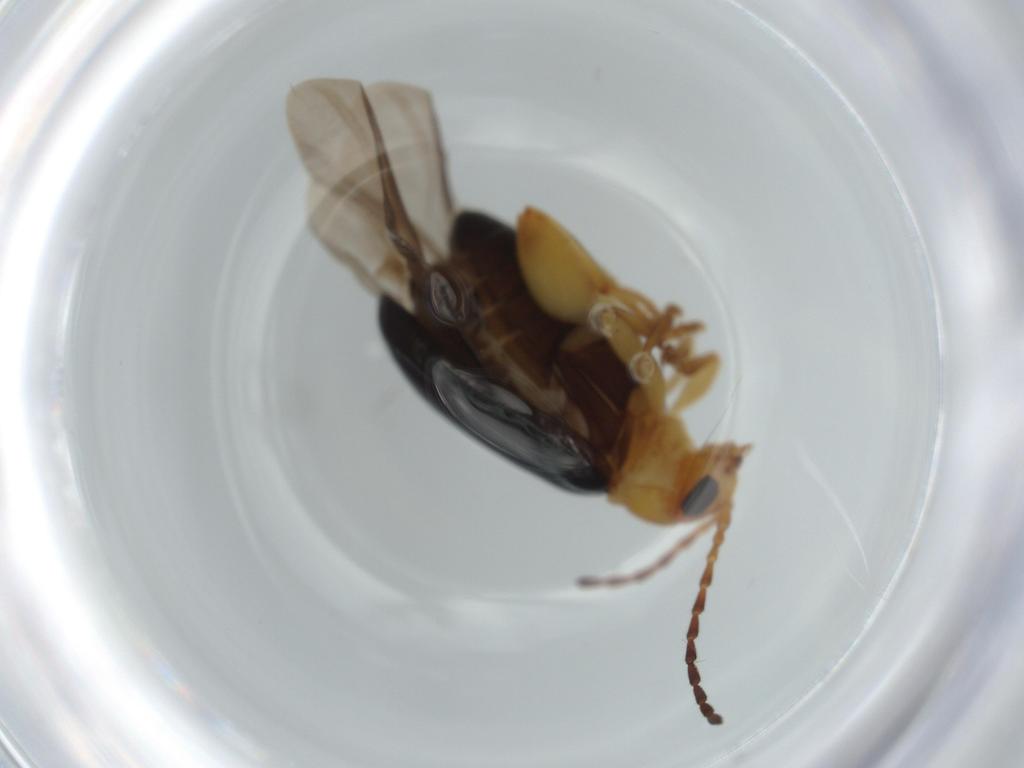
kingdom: Animalia
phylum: Arthropoda
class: Insecta
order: Coleoptera
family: Chrysomelidae
